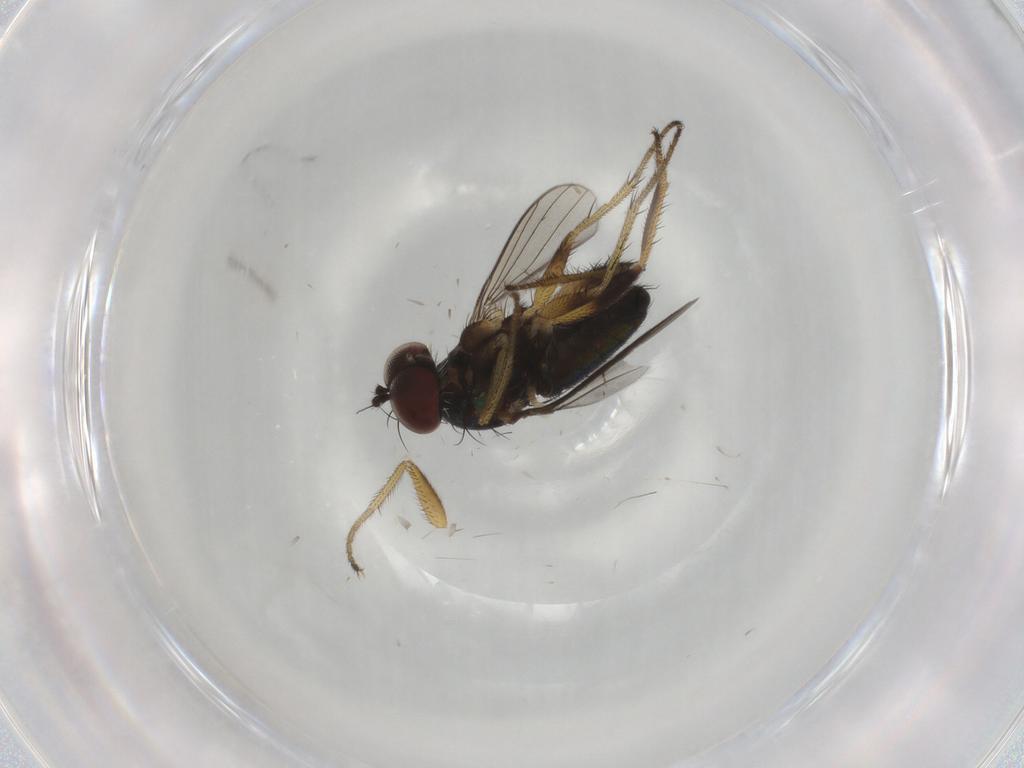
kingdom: Animalia
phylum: Arthropoda
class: Insecta
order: Diptera
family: Dolichopodidae
